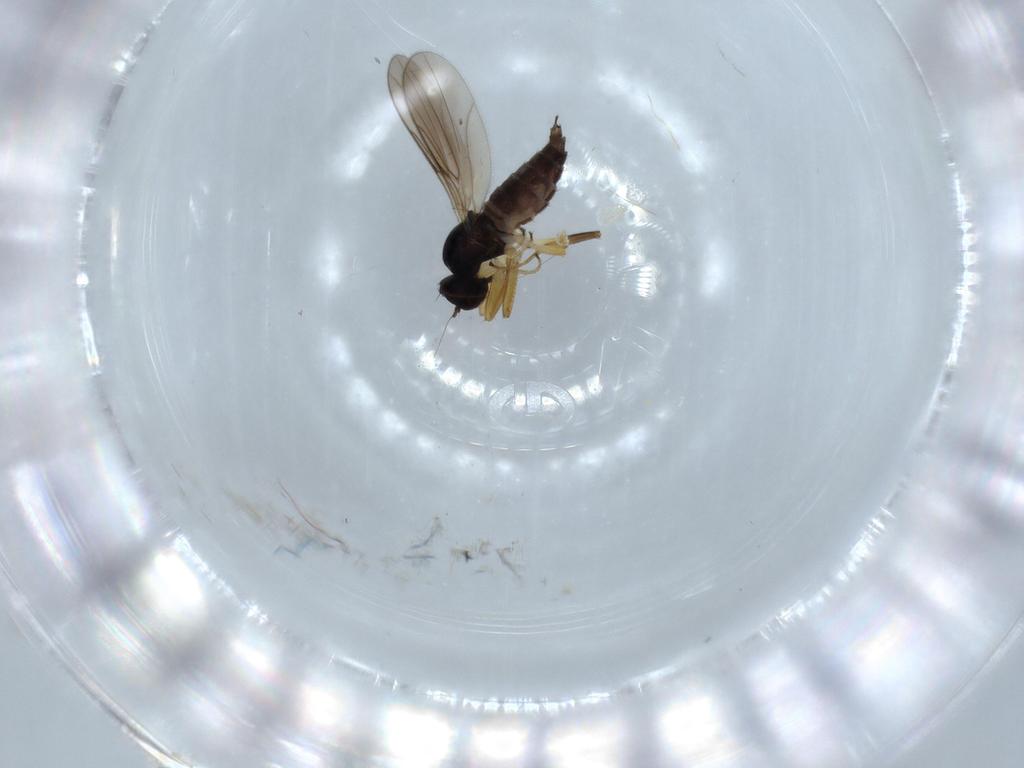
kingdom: Animalia
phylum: Arthropoda
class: Insecta
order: Diptera
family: Hybotidae
